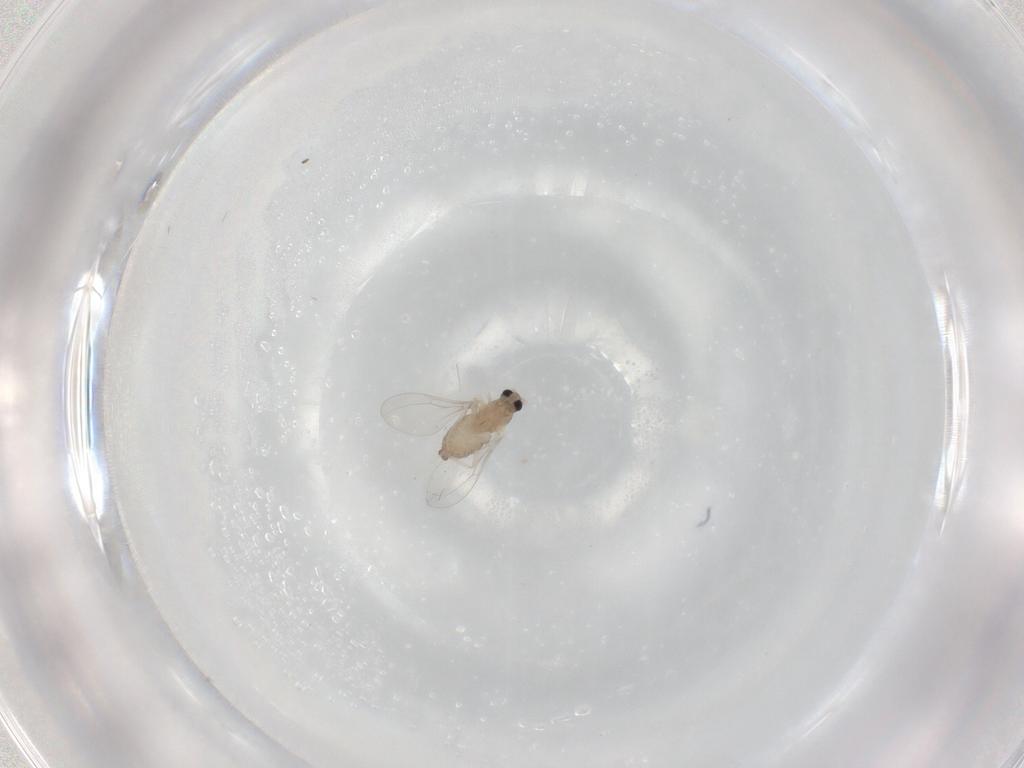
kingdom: Animalia
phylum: Arthropoda
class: Insecta
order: Diptera
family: Cecidomyiidae
